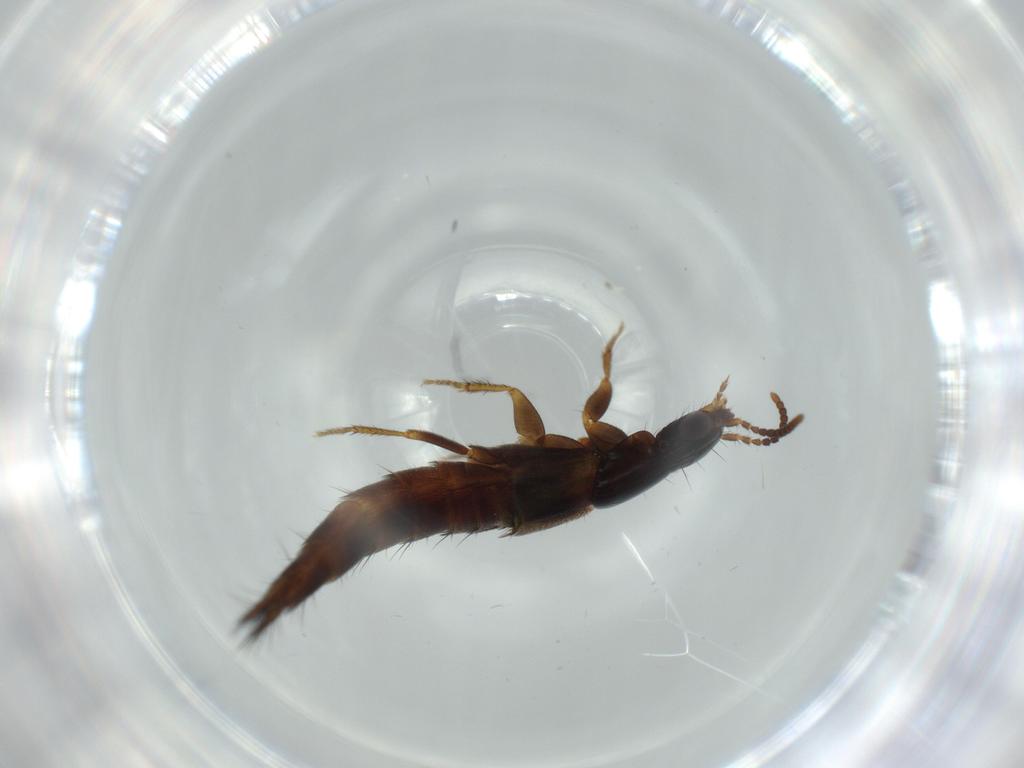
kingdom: Animalia
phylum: Arthropoda
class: Insecta
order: Coleoptera
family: Staphylinidae
